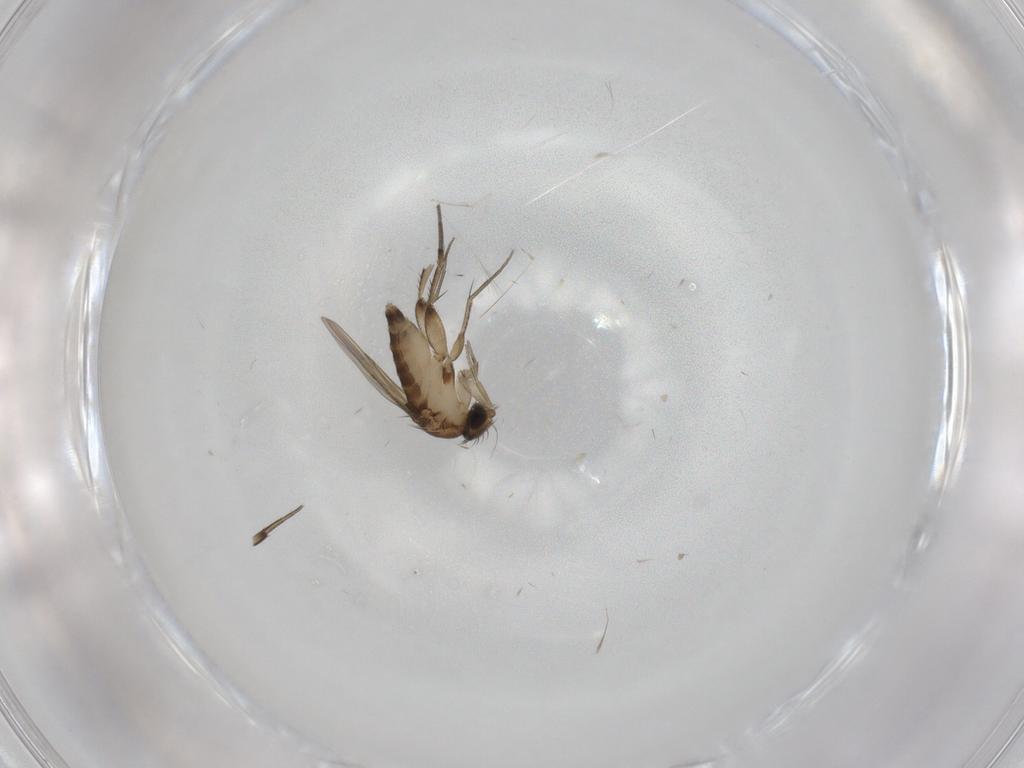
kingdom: Animalia
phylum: Arthropoda
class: Insecta
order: Diptera
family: Phoridae
